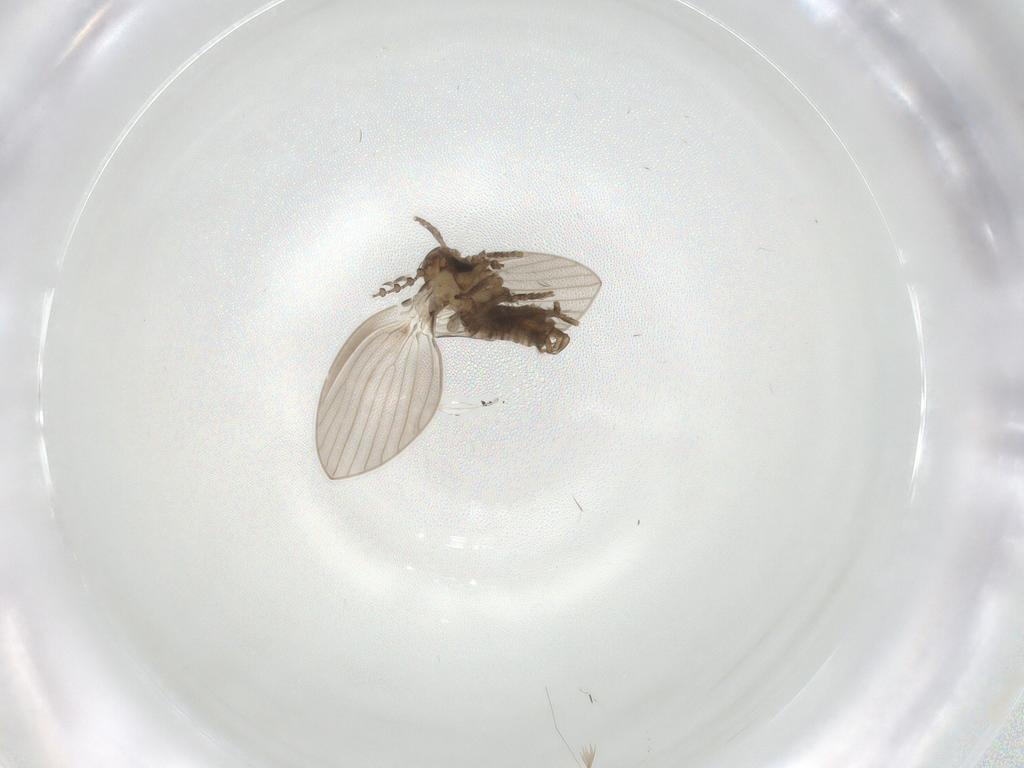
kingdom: Animalia
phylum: Arthropoda
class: Insecta
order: Diptera
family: Psychodidae
